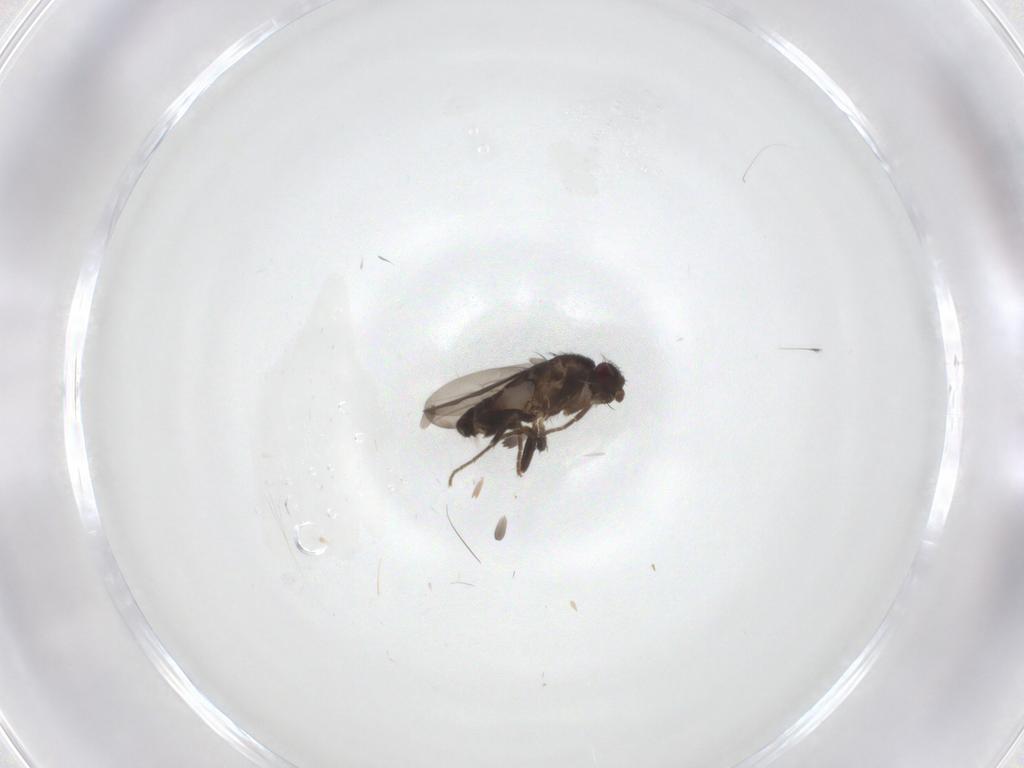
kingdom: Animalia
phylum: Arthropoda
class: Insecta
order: Diptera
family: Sphaeroceridae
